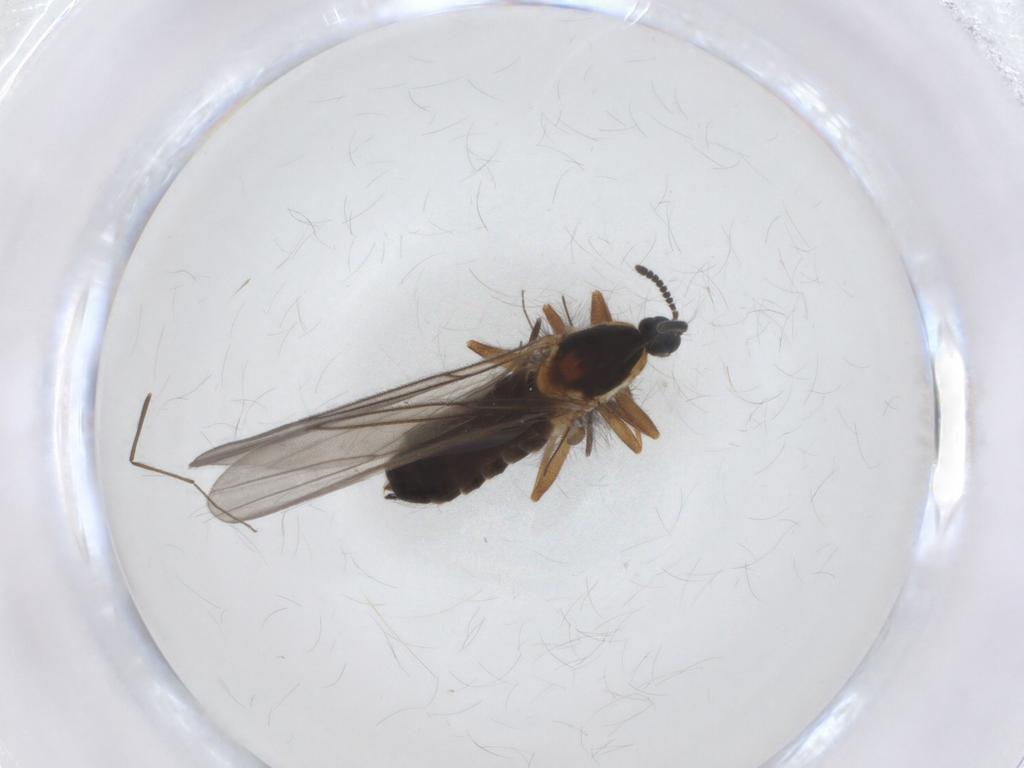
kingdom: Animalia
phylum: Arthropoda
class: Insecta
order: Diptera
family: Scatopsidae
